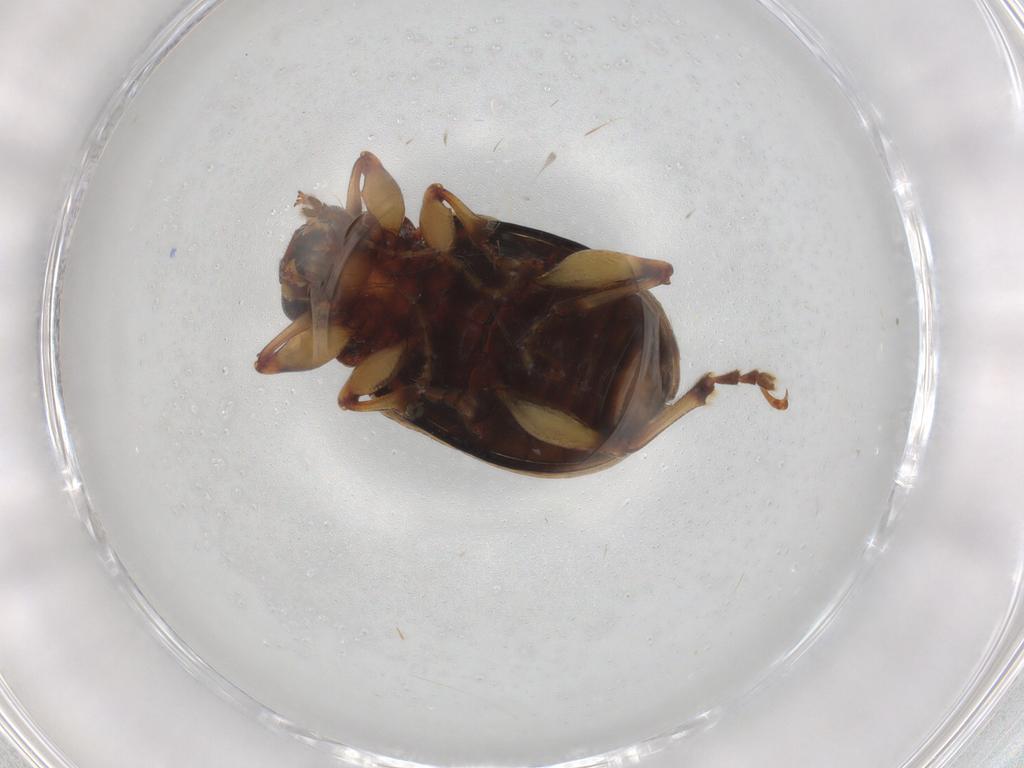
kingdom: Animalia
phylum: Arthropoda
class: Insecta
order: Coleoptera
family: Chrysomelidae
